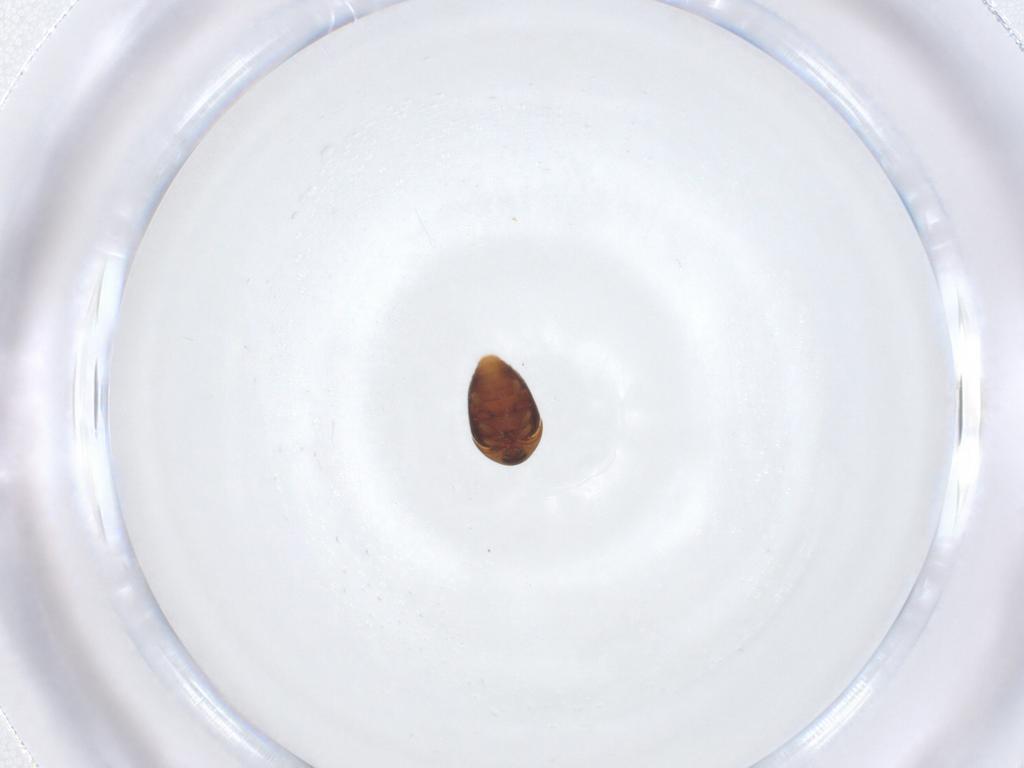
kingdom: Animalia
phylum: Arthropoda
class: Insecta
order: Coleoptera
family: Corylophidae
